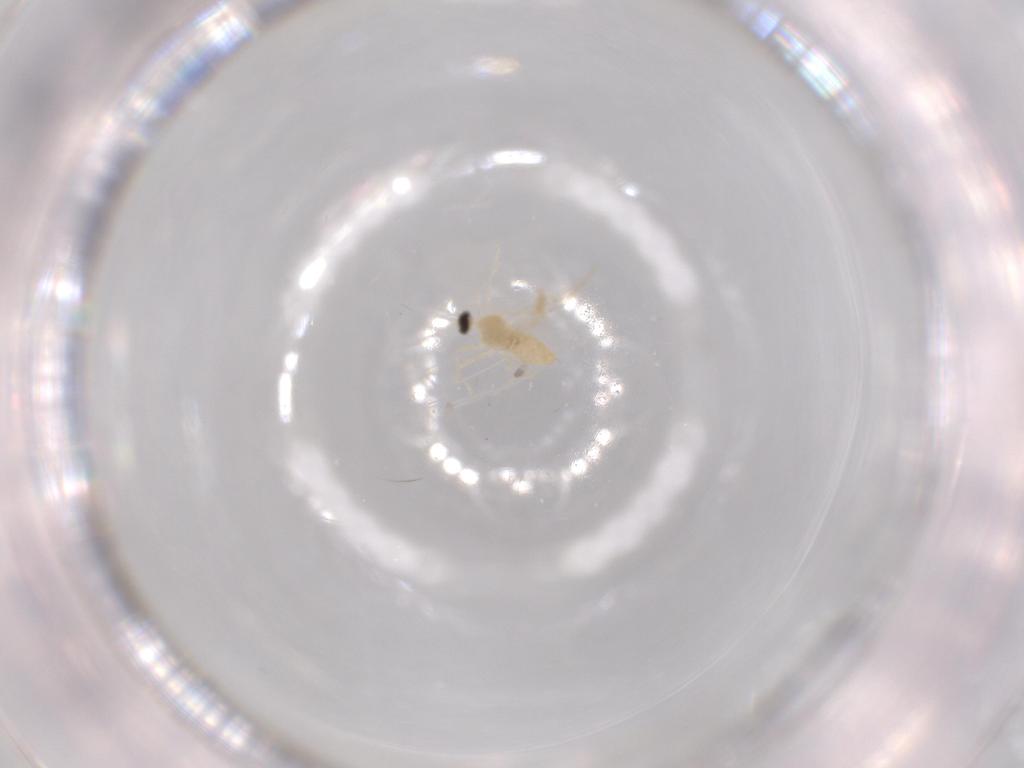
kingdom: Animalia
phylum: Arthropoda
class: Insecta
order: Diptera
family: Cecidomyiidae
